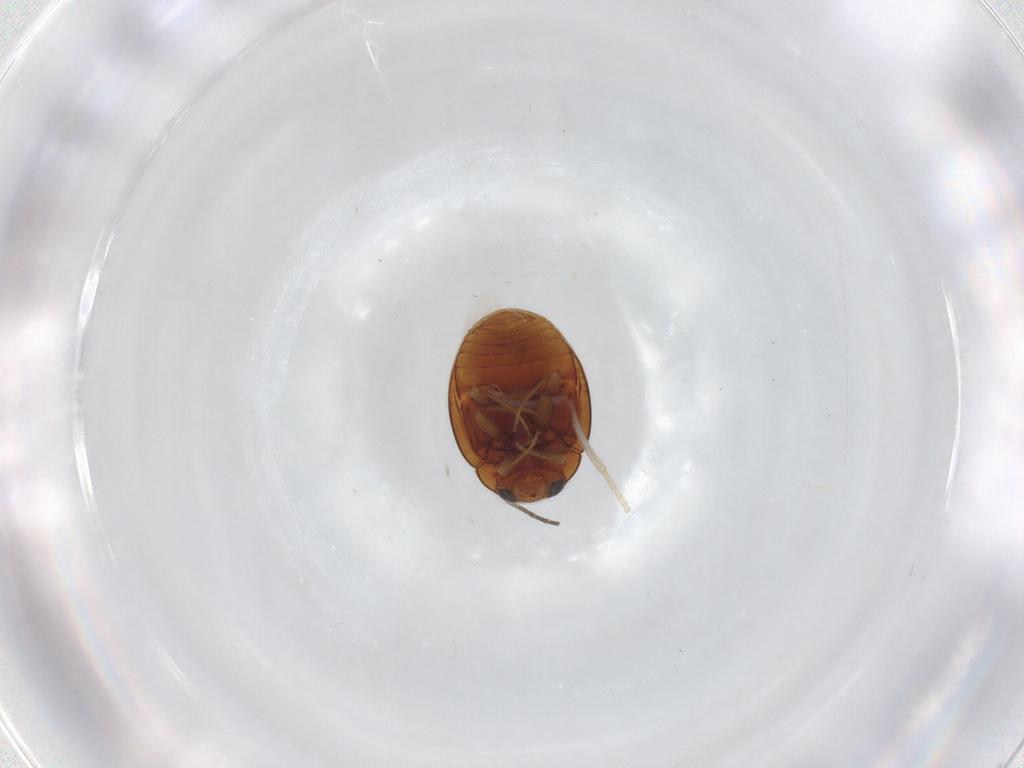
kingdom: Animalia
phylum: Arthropoda
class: Insecta
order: Coleoptera
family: Coccinellidae
